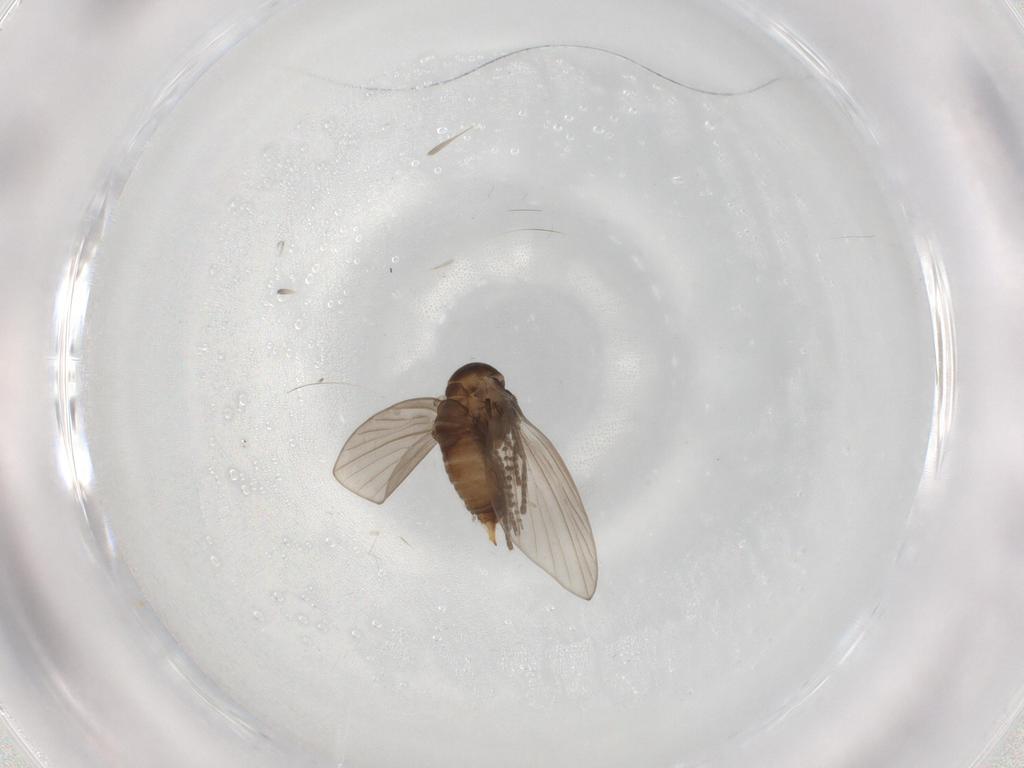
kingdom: Animalia
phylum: Arthropoda
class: Insecta
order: Diptera
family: Psychodidae
